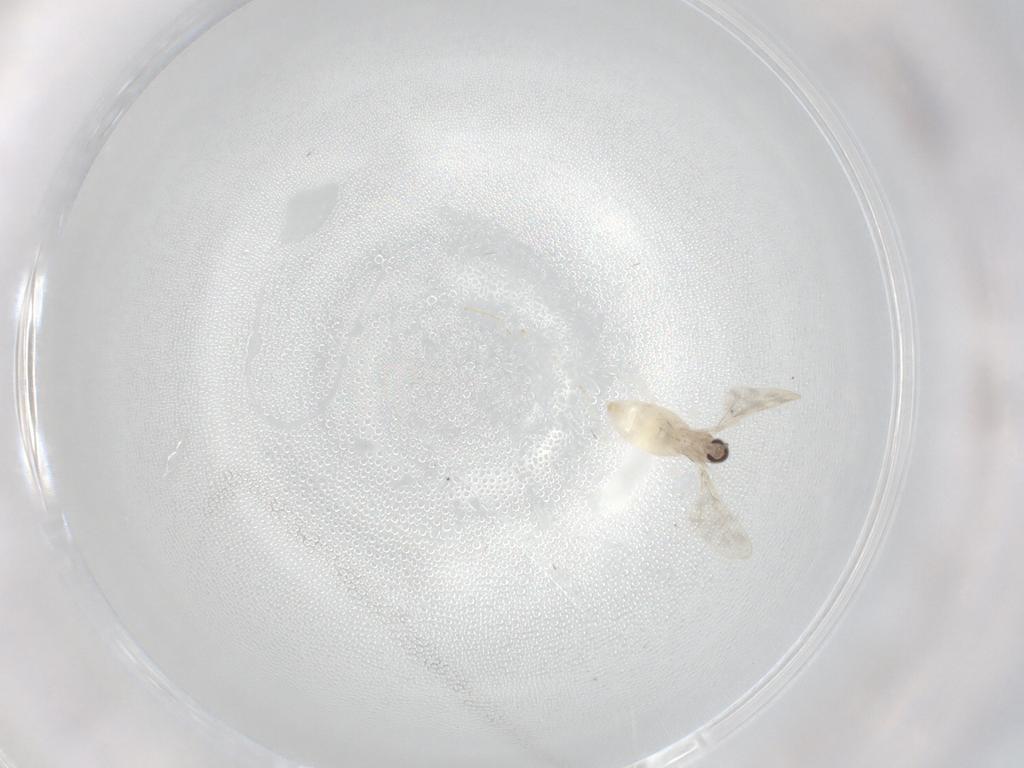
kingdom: Animalia
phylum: Arthropoda
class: Insecta
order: Diptera
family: Cecidomyiidae
